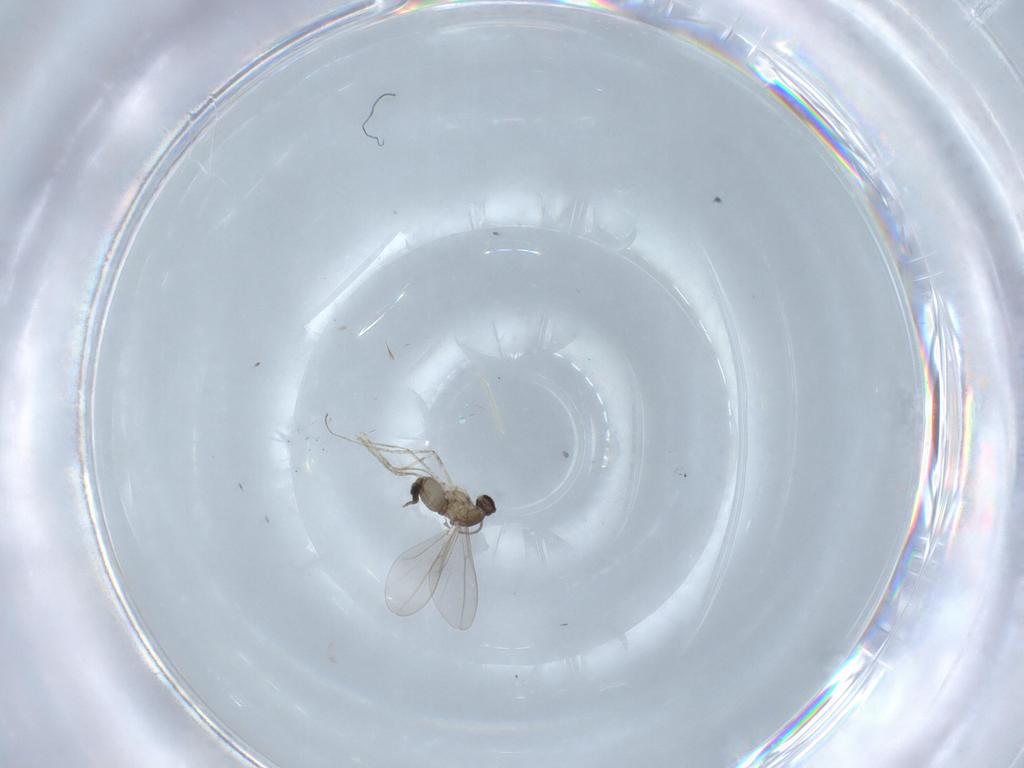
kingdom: Animalia
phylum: Arthropoda
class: Insecta
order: Diptera
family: Cecidomyiidae
